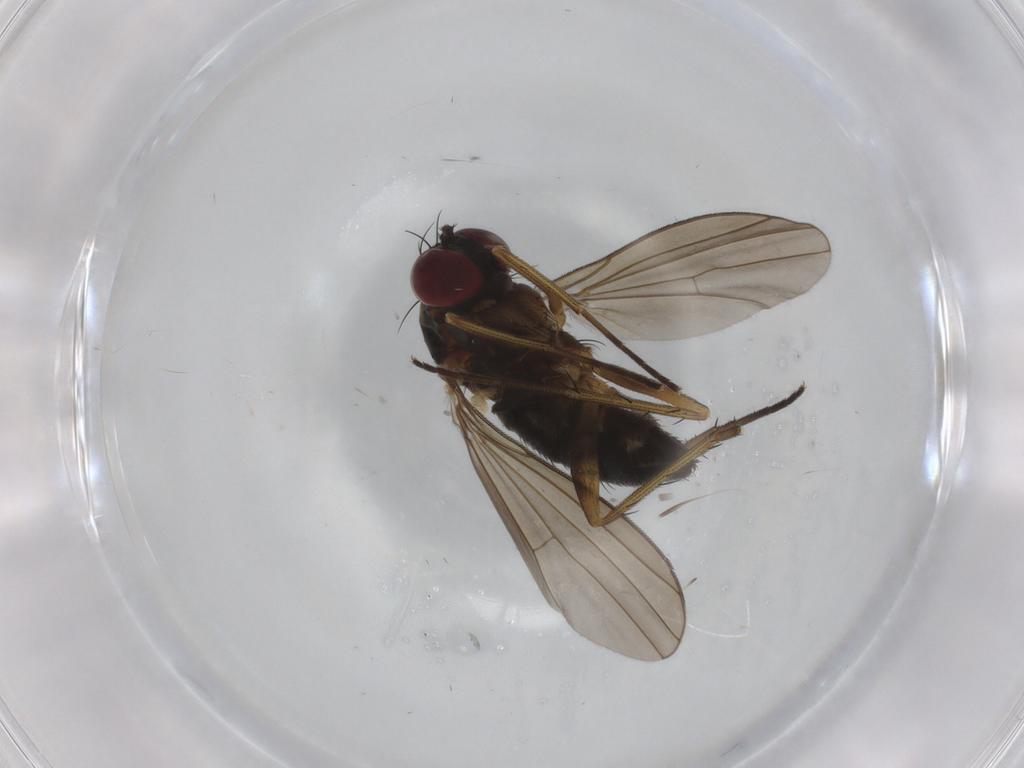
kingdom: Animalia
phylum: Arthropoda
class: Insecta
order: Diptera
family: Dolichopodidae
